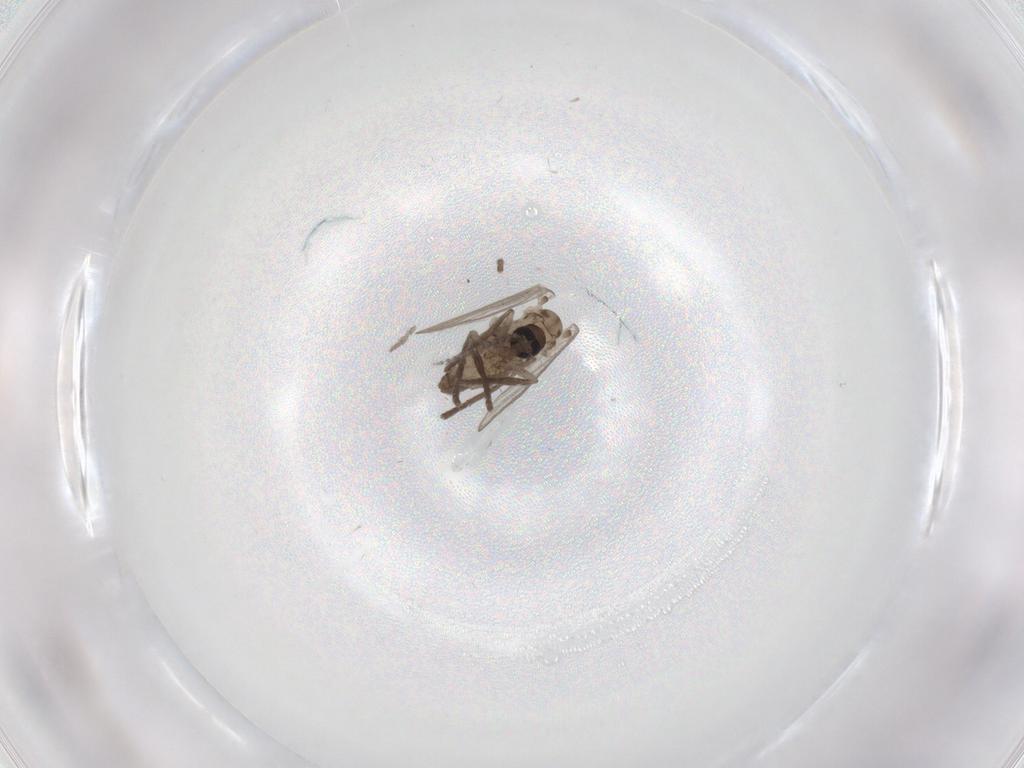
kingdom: Animalia
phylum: Arthropoda
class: Insecta
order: Diptera
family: Psychodidae
